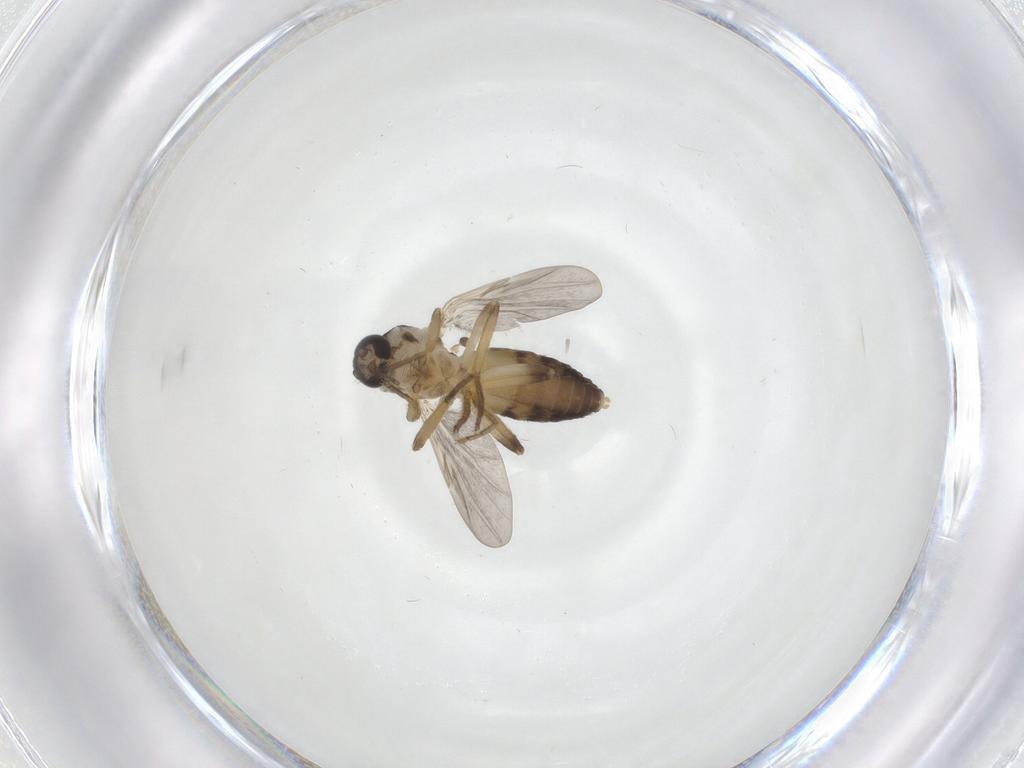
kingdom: Animalia
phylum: Arthropoda
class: Insecta
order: Diptera
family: Ceratopogonidae
